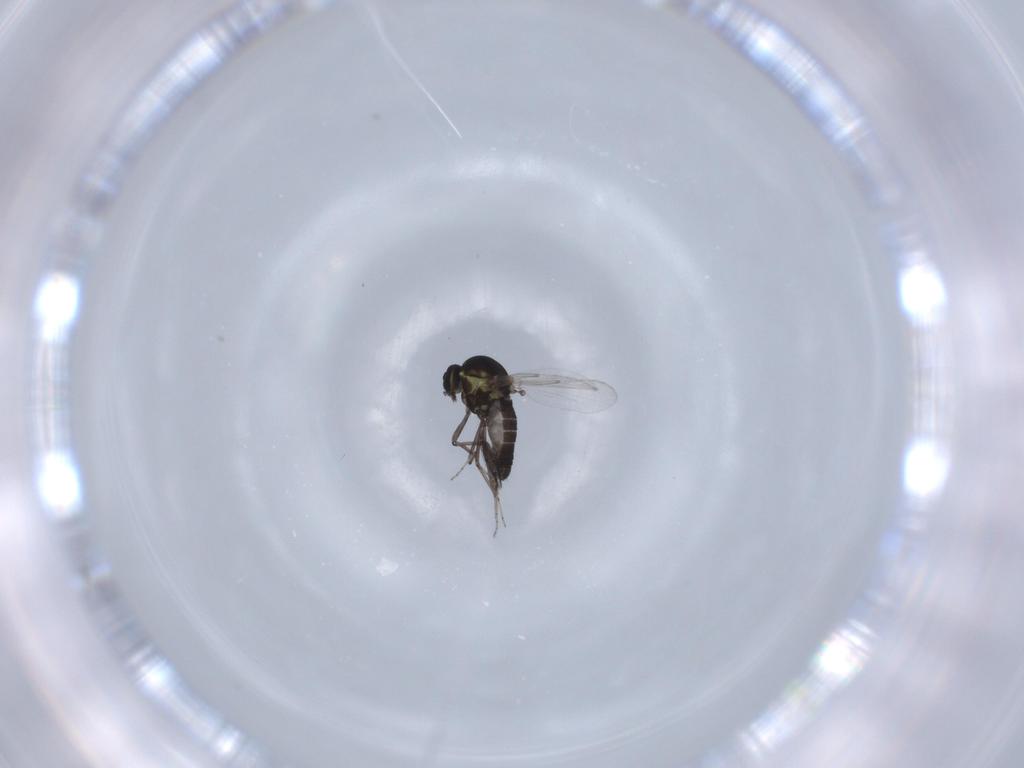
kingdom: Animalia
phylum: Arthropoda
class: Insecta
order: Diptera
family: Ceratopogonidae
